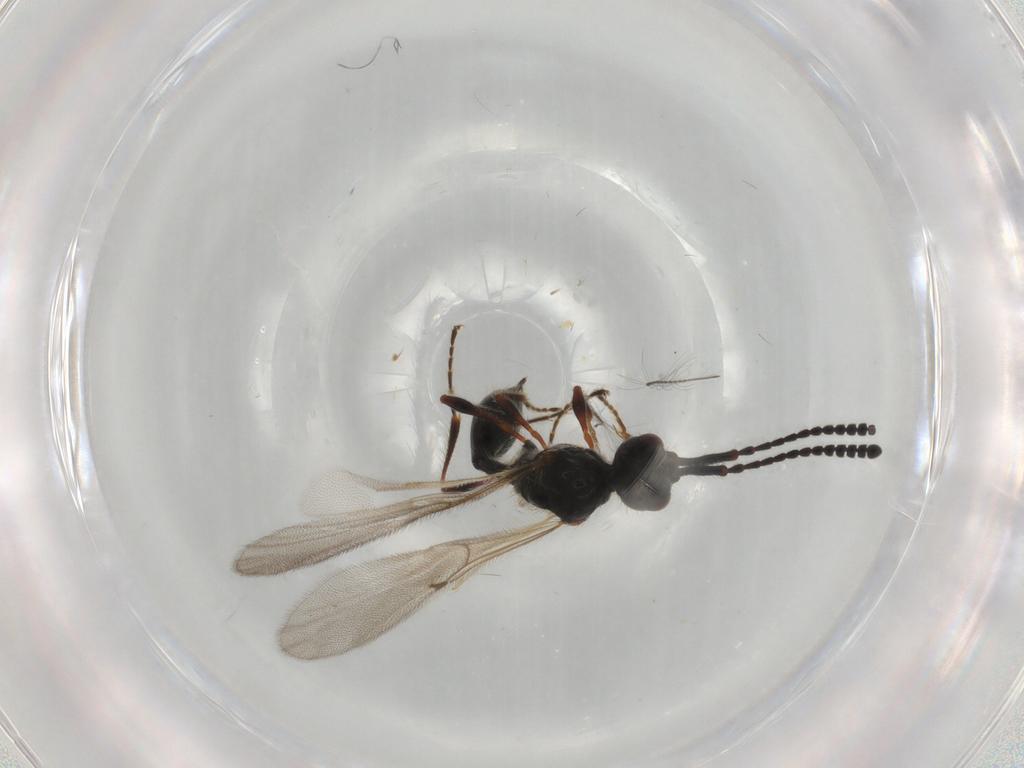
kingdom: Animalia
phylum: Arthropoda
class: Insecta
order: Hymenoptera
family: Diapriidae
